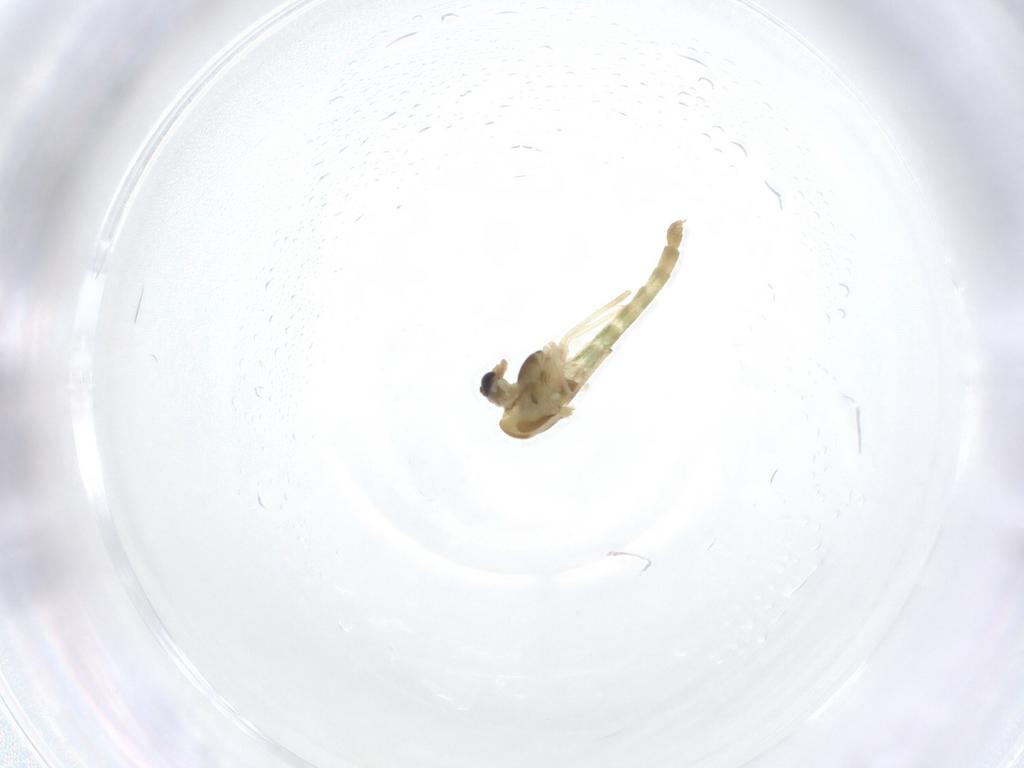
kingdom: Animalia
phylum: Arthropoda
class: Insecta
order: Diptera
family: Chironomidae
